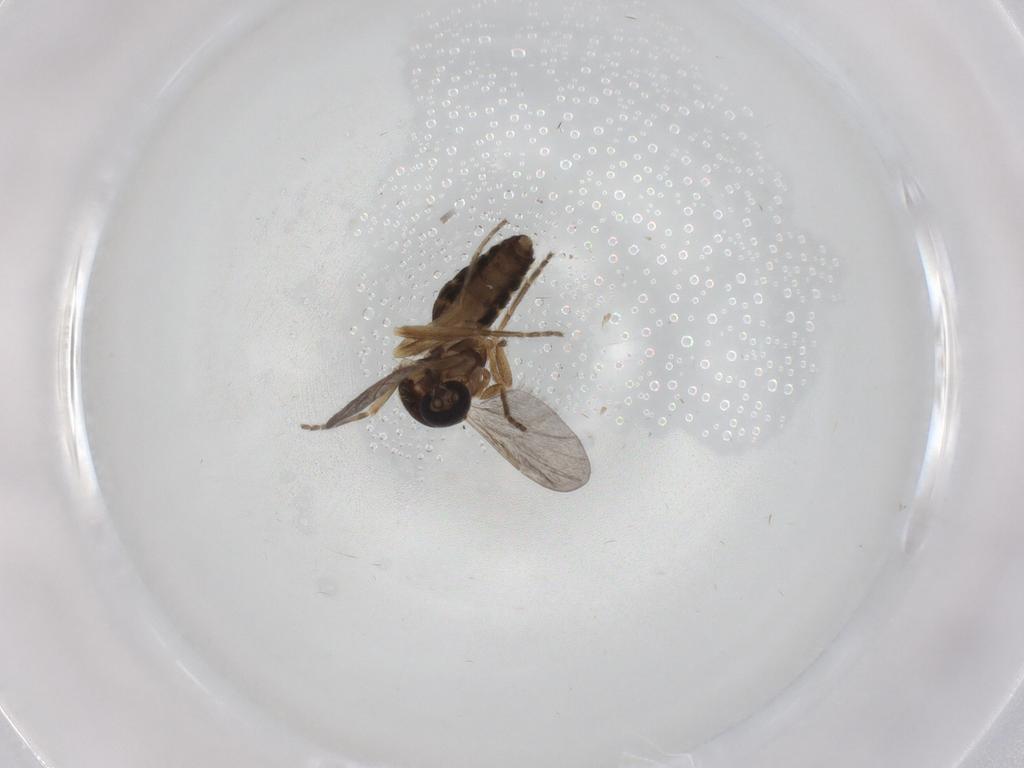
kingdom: Animalia
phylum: Arthropoda
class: Insecta
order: Diptera
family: Ceratopogonidae
